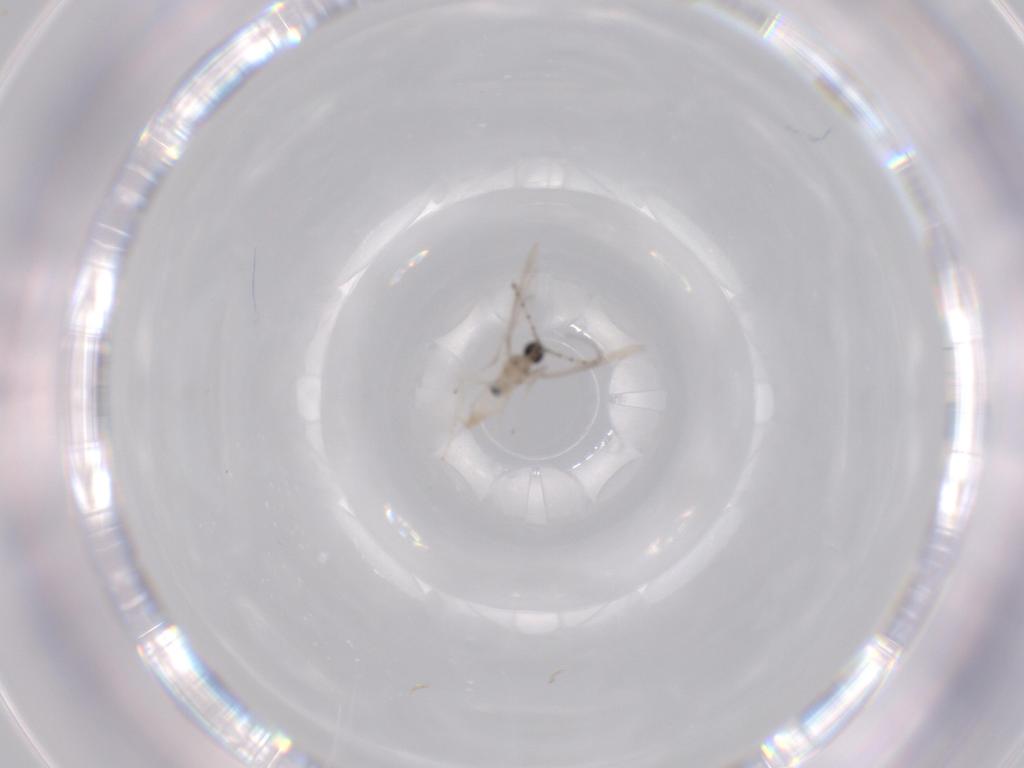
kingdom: Animalia
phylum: Arthropoda
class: Insecta
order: Diptera
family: Cecidomyiidae
